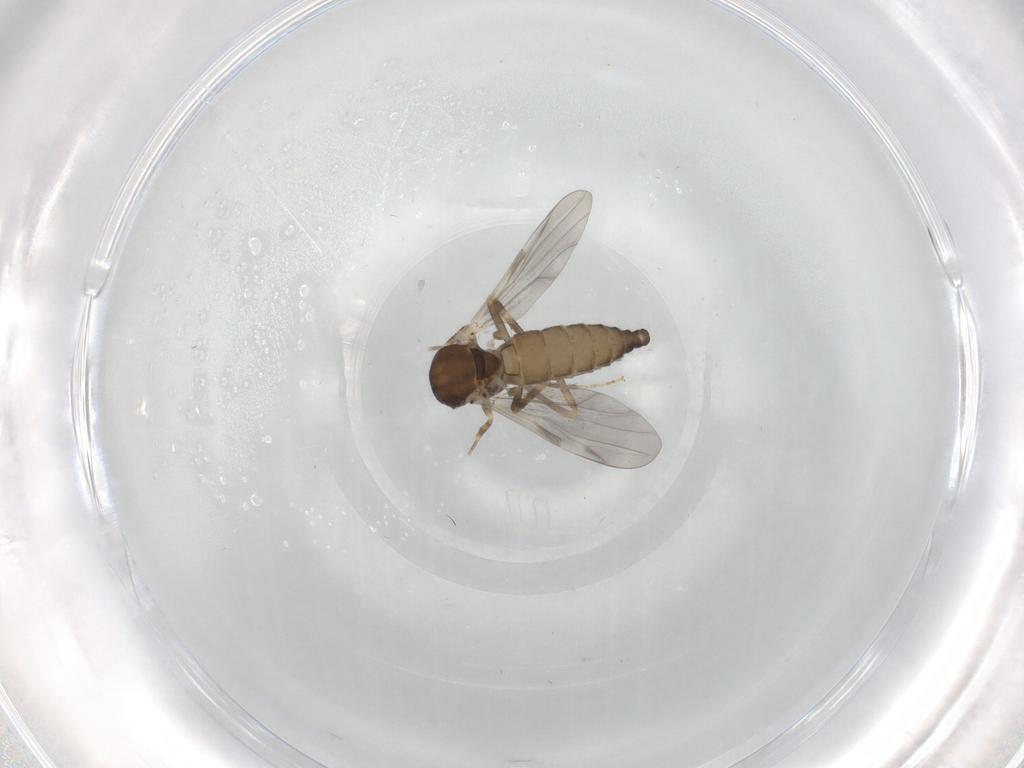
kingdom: Animalia
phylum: Arthropoda
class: Insecta
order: Diptera
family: Ceratopogonidae
